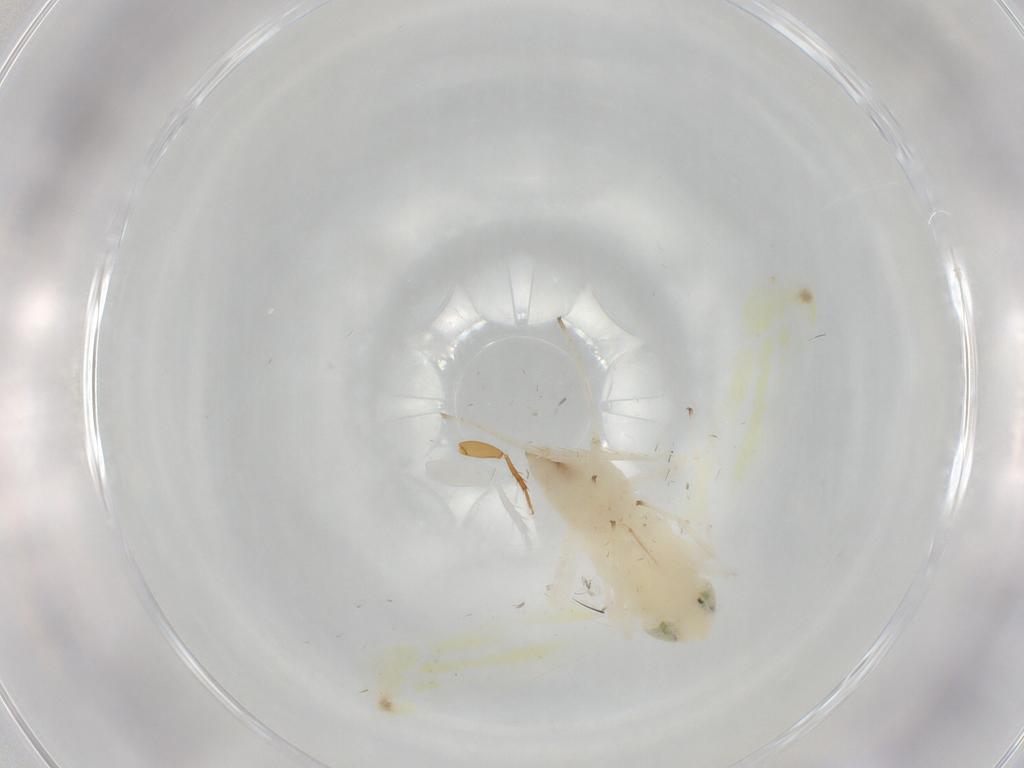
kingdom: Animalia
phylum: Arthropoda
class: Insecta
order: Hemiptera
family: Cicadellidae
